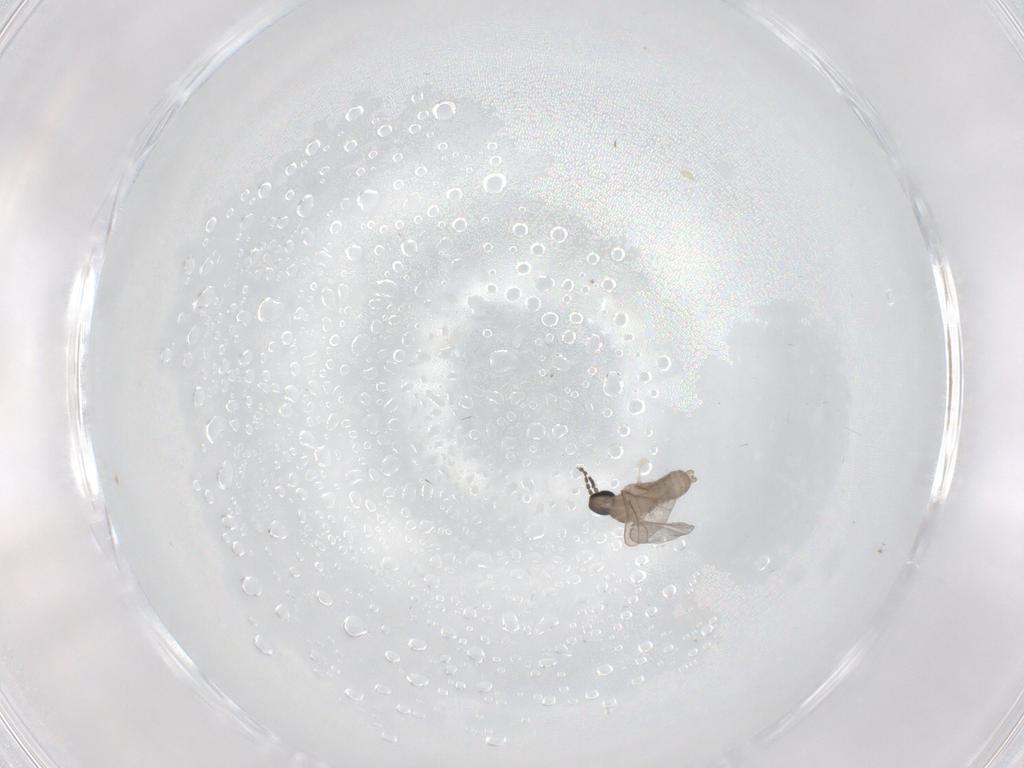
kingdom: Animalia
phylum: Arthropoda
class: Insecta
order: Diptera
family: Cecidomyiidae
